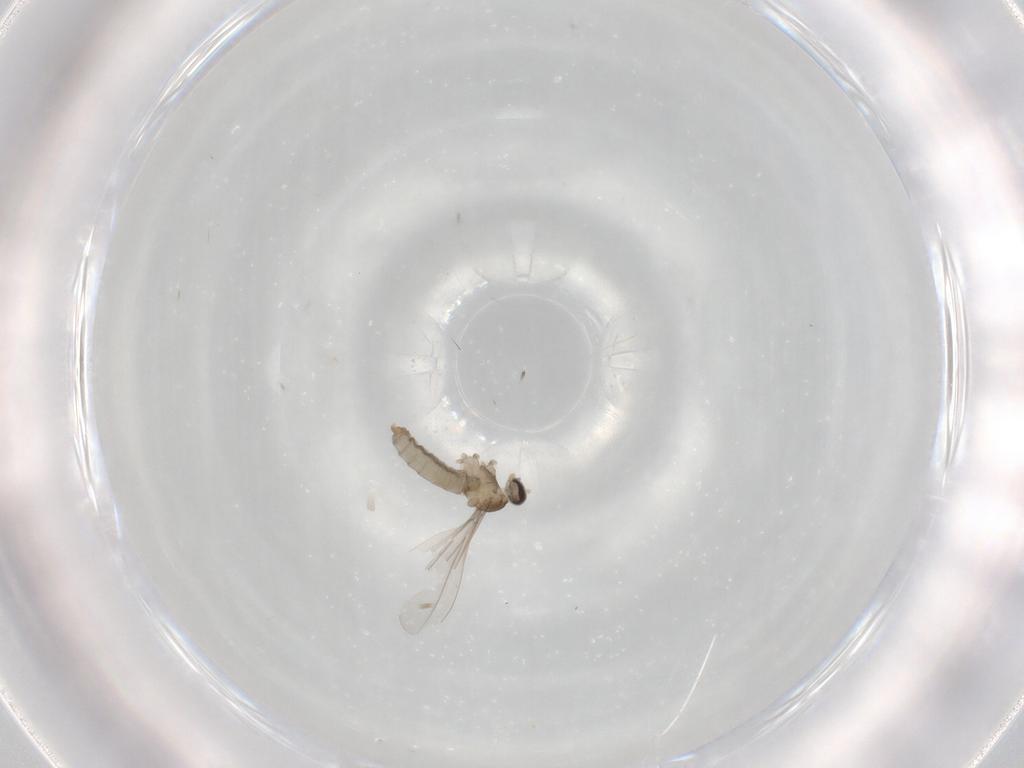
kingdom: Animalia
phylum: Arthropoda
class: Insecta
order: Diptera
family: Cecidomyiidae
